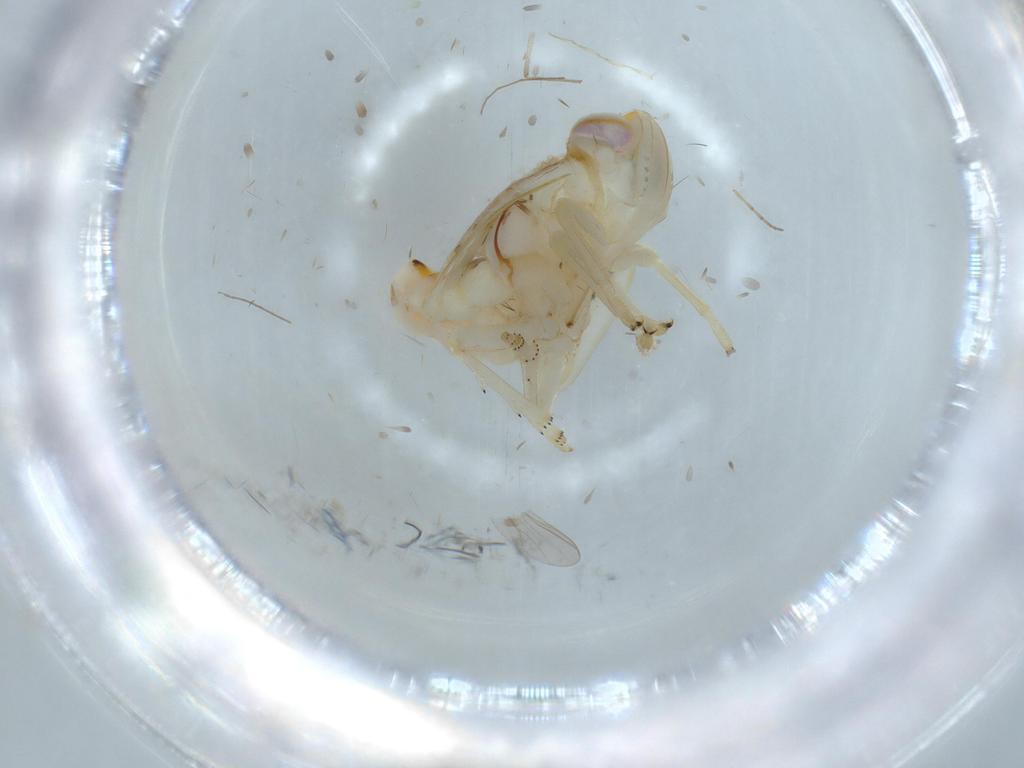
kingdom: Animalia
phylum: Arthropoda
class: Insecta
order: Hemiptera
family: Nogodinidae
